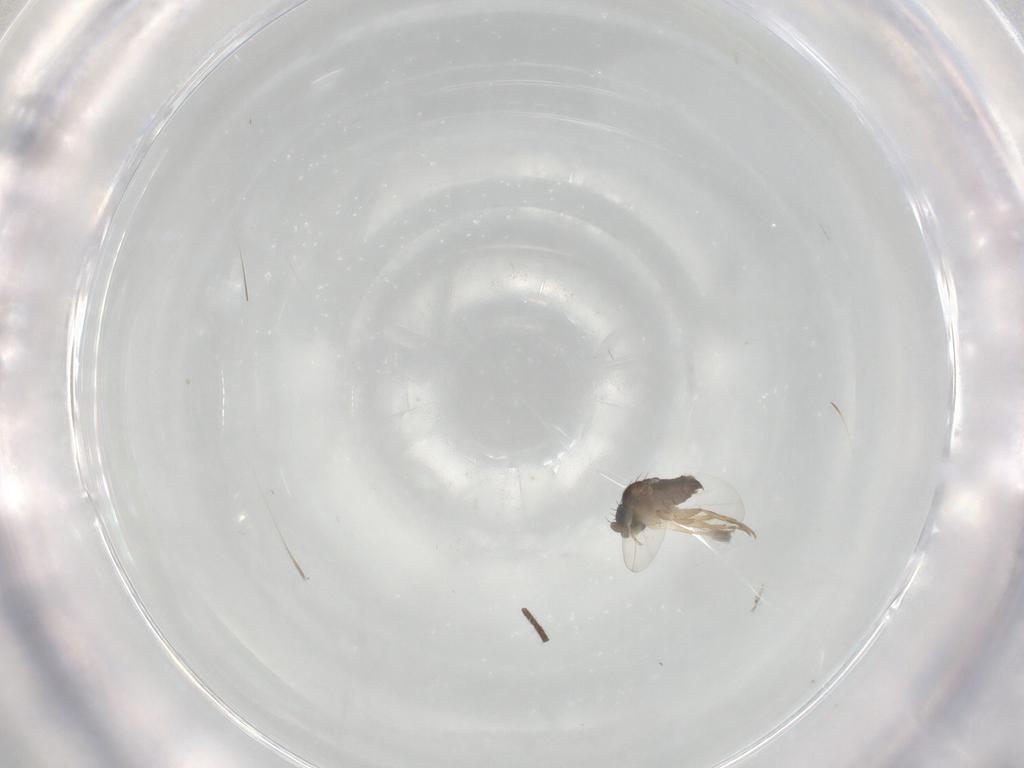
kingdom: Animalia
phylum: Arthropoda
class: Insecta
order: Diptera
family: Phoridae
